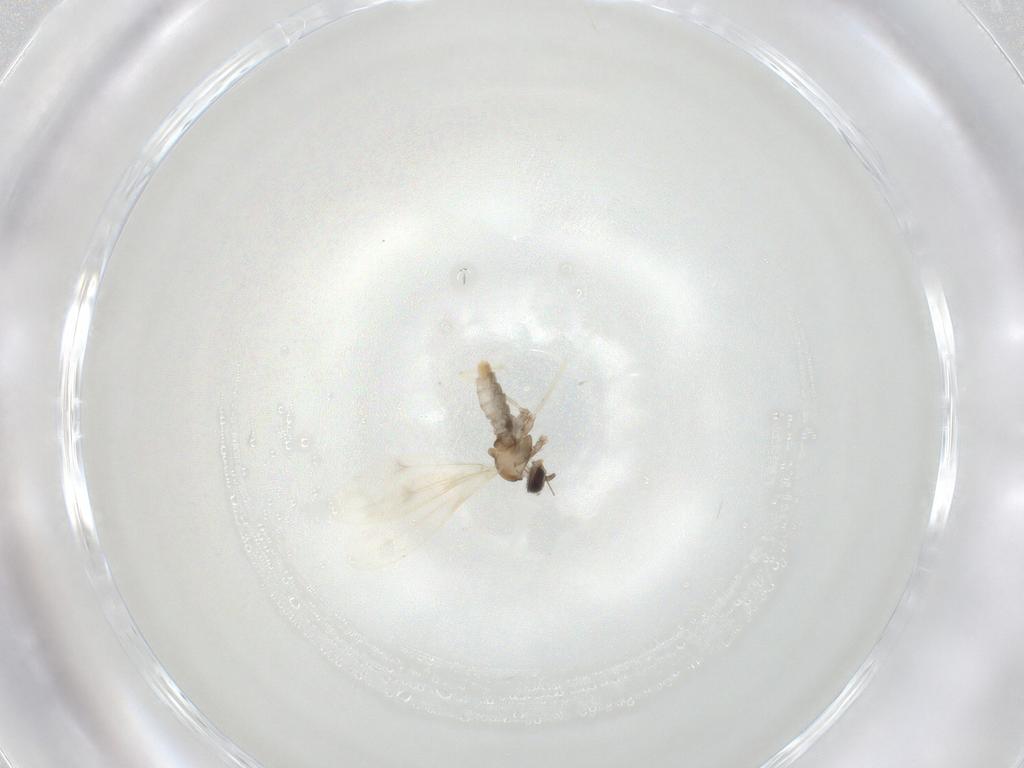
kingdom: Animalia
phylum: Arthropoda
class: Insecta
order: Diptera
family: Cecidomyiidae
